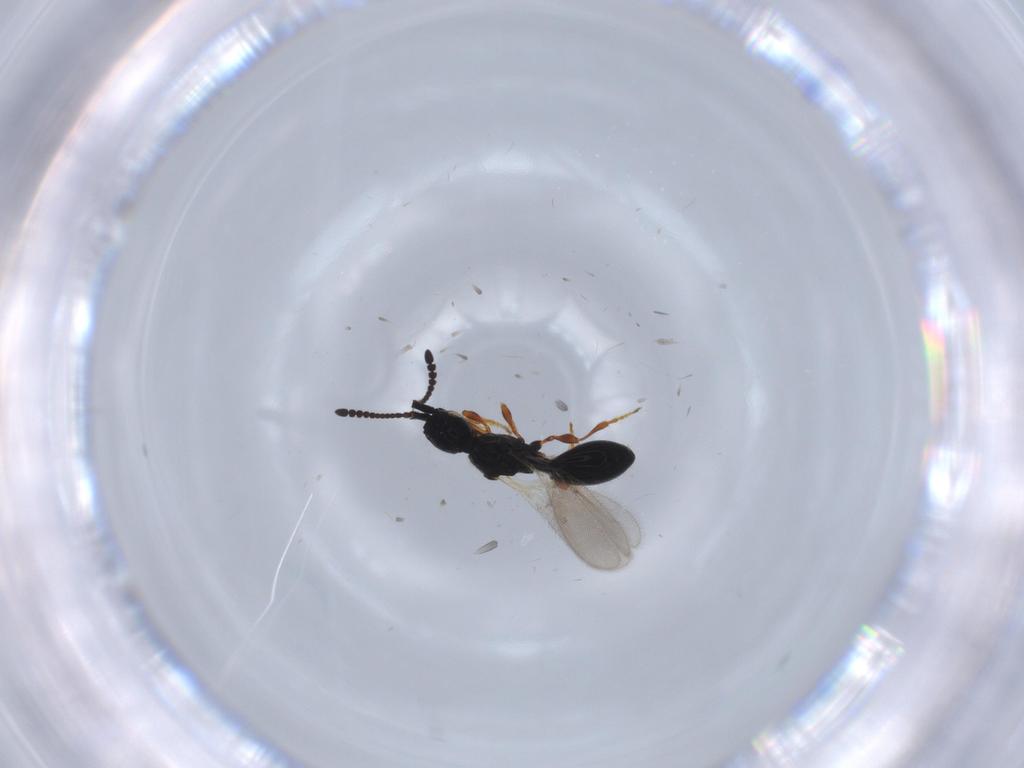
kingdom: Animalia
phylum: Arthropoda
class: Insecta
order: Hymenoptera
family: Diapriidae
